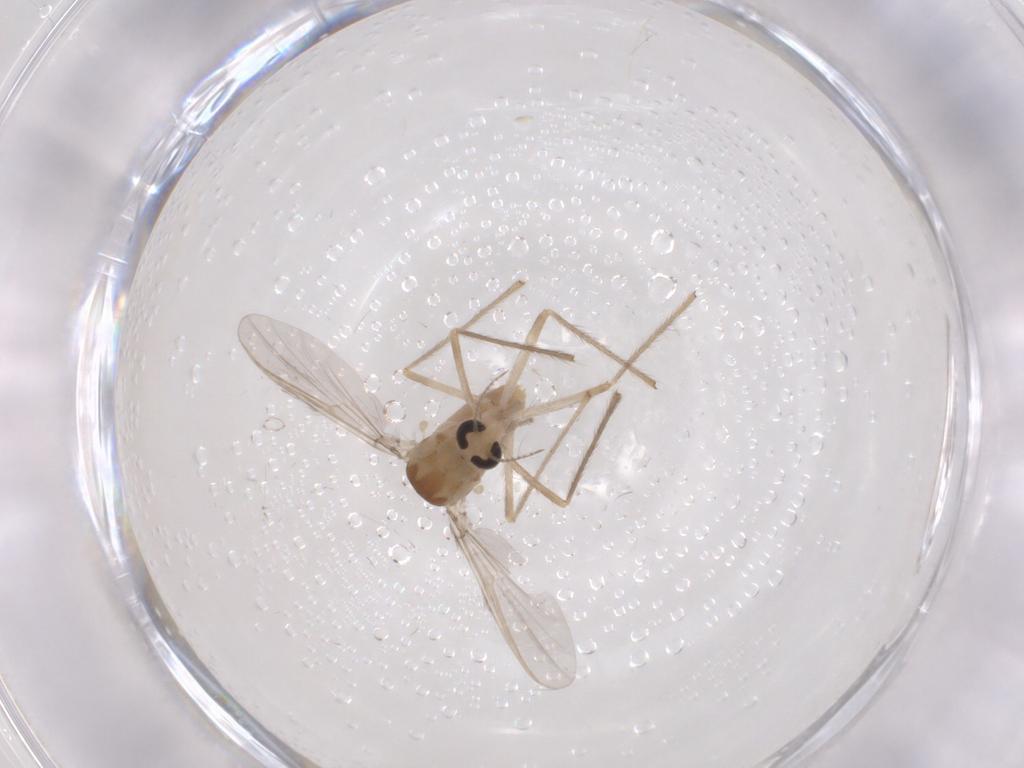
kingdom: Animalia
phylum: Arthropoda
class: Insecta
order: Diptera
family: Chironomidae
